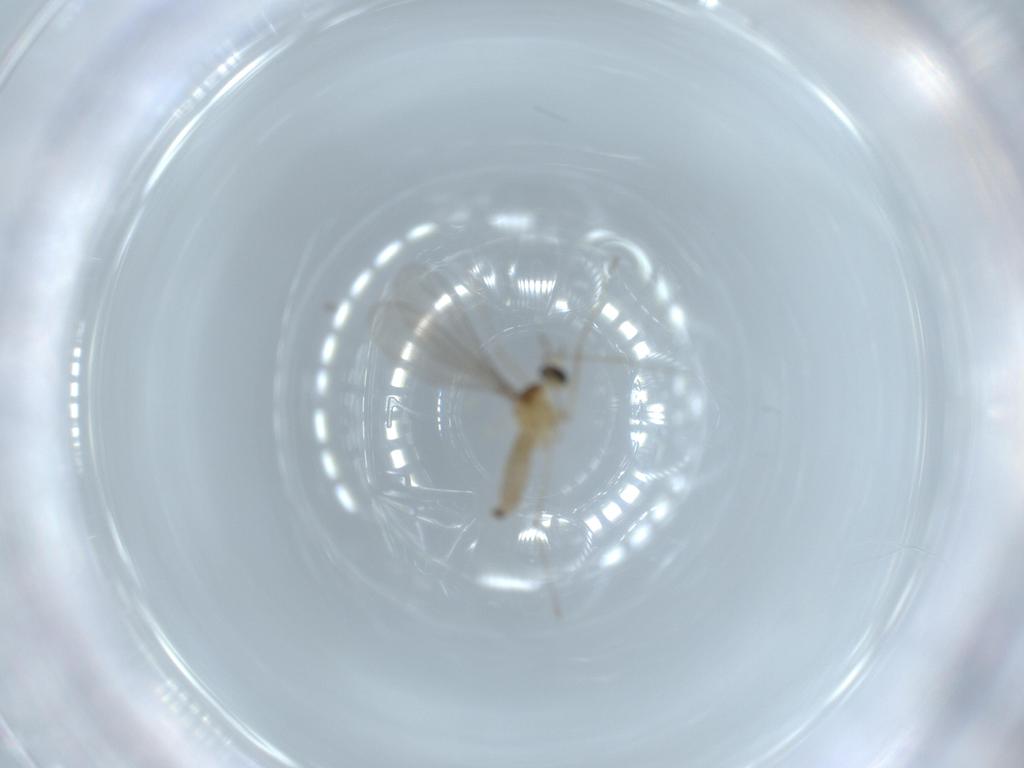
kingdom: Animalia
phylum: Arthropoda
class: Insecta
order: Diptera
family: Cecidomyiidae
